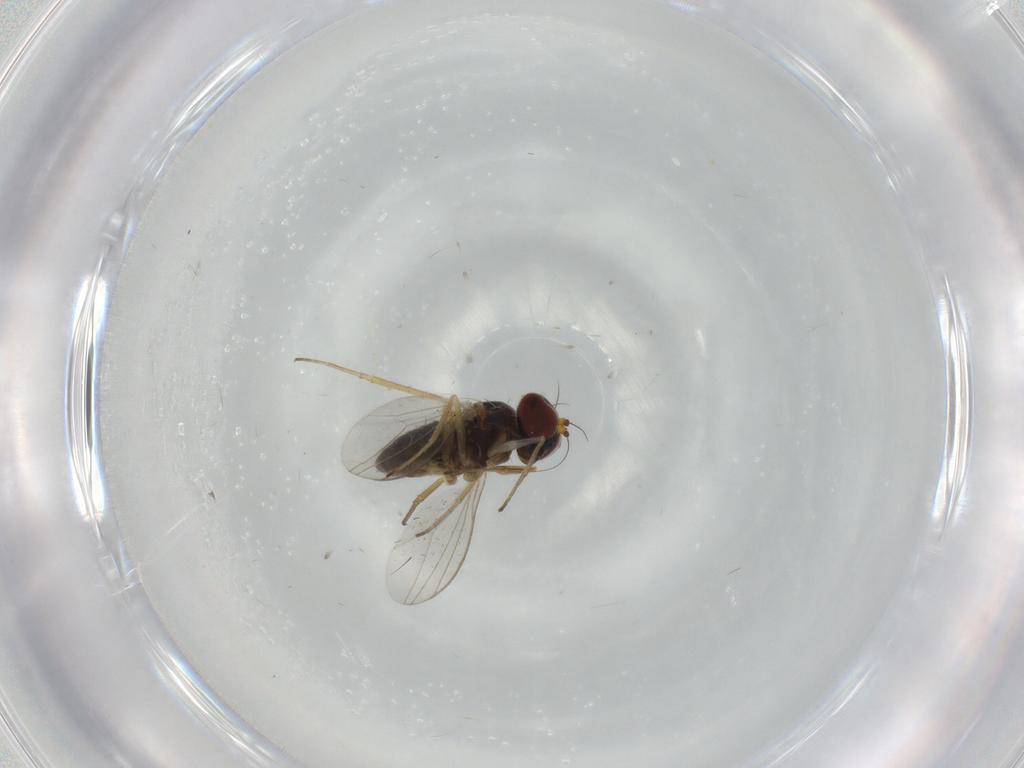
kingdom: Animalia
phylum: Arthropoda
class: Insecta
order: Diptera
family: Dolichopodidae
